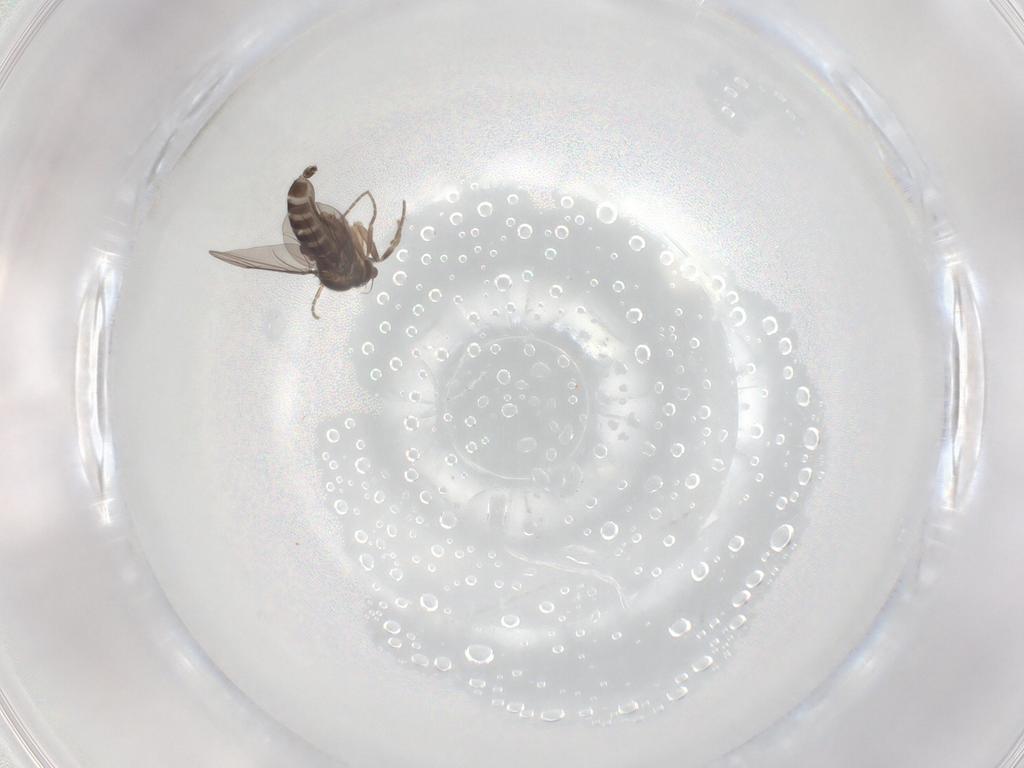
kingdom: Animalia
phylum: Arthropoda
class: Insecta
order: Diptera
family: Phoridae
